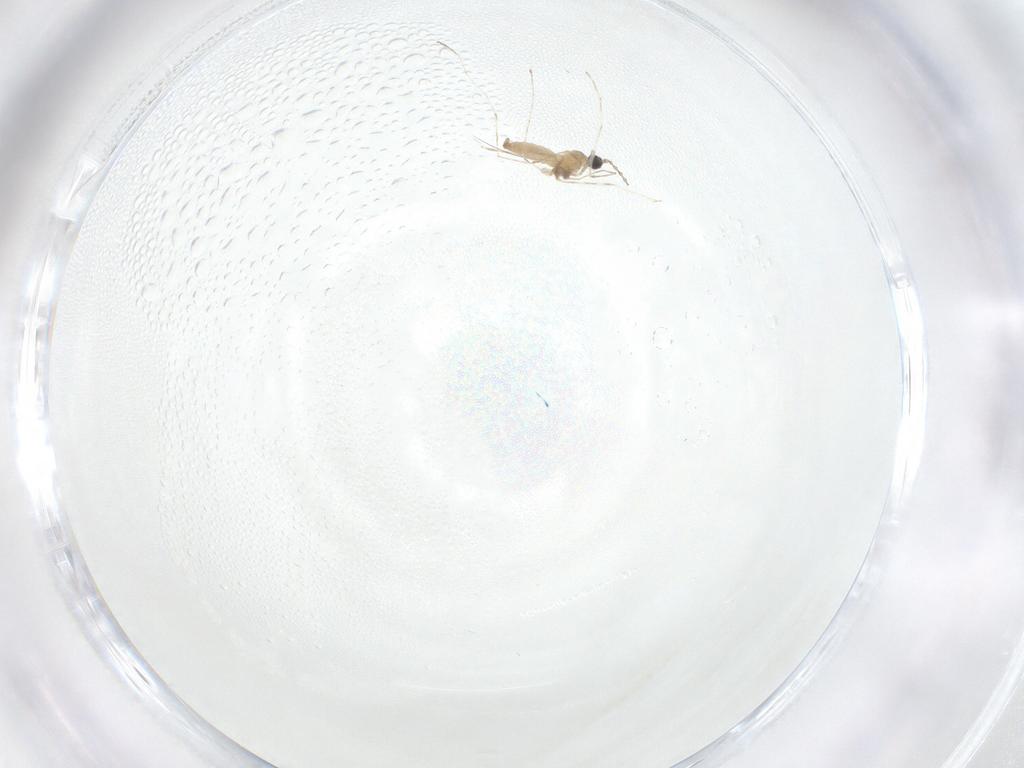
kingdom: Animalia
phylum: Arthropoda
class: Insecta
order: Diptera
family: Cecidomyiidae
